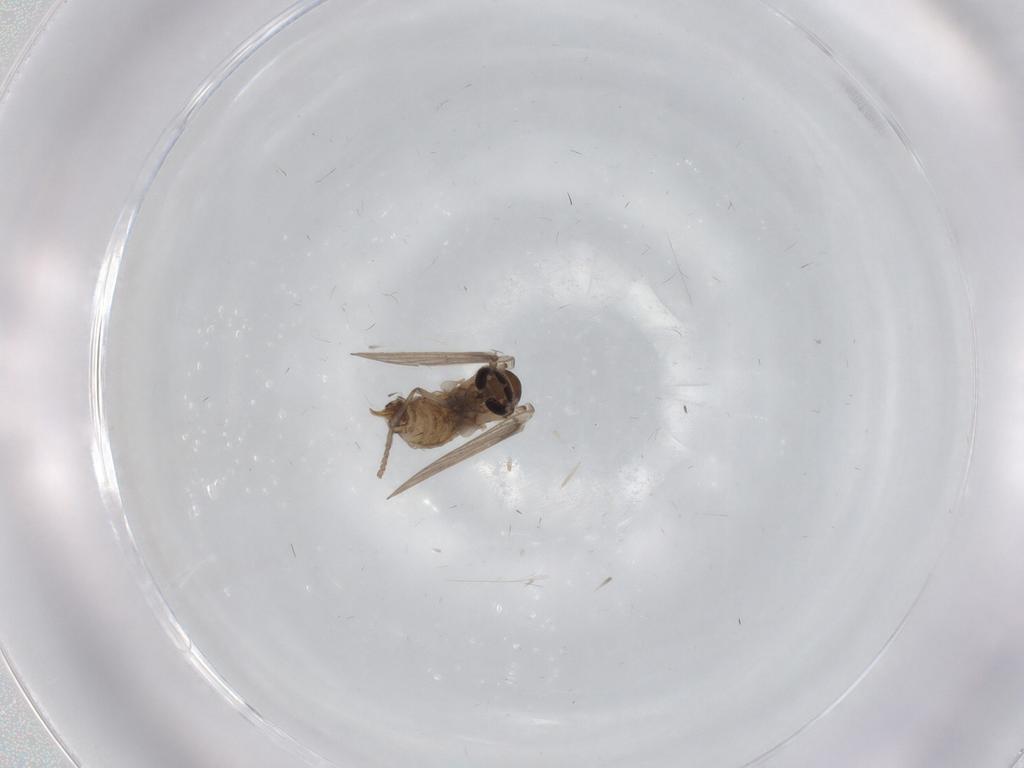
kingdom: Animalia
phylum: Arthropoda
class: Insecta
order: Diptera
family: Psychodidae
